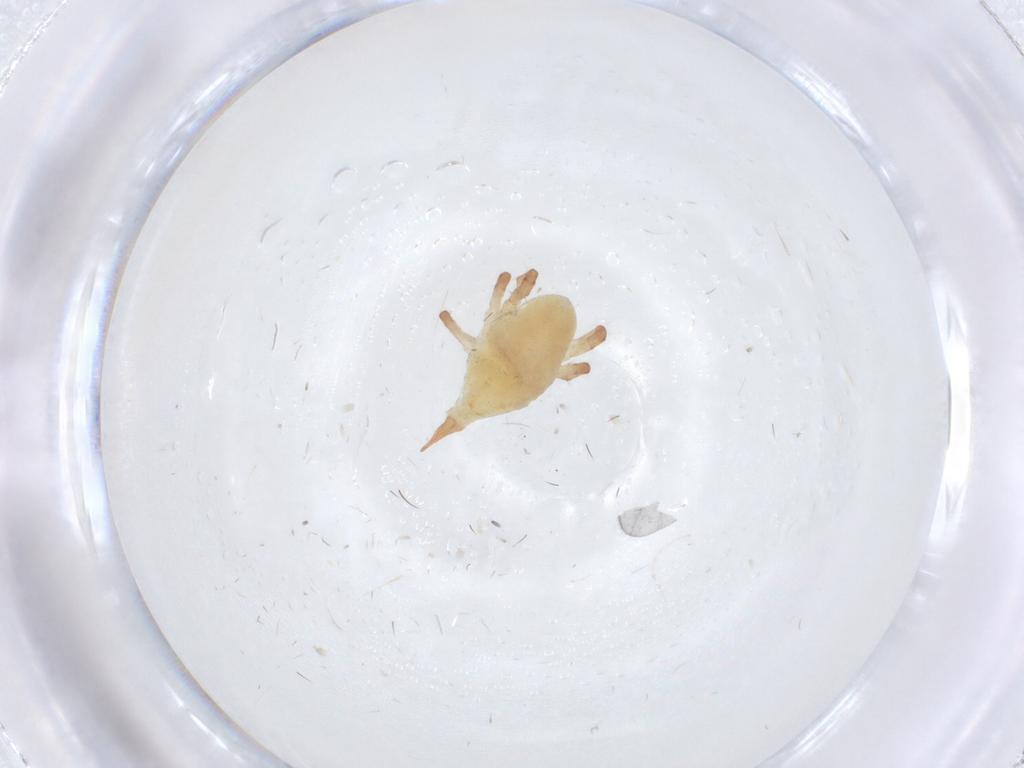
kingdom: Animalia
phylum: Arthropoda
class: Arachnida
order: Trombidiformes
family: Bdellidae
